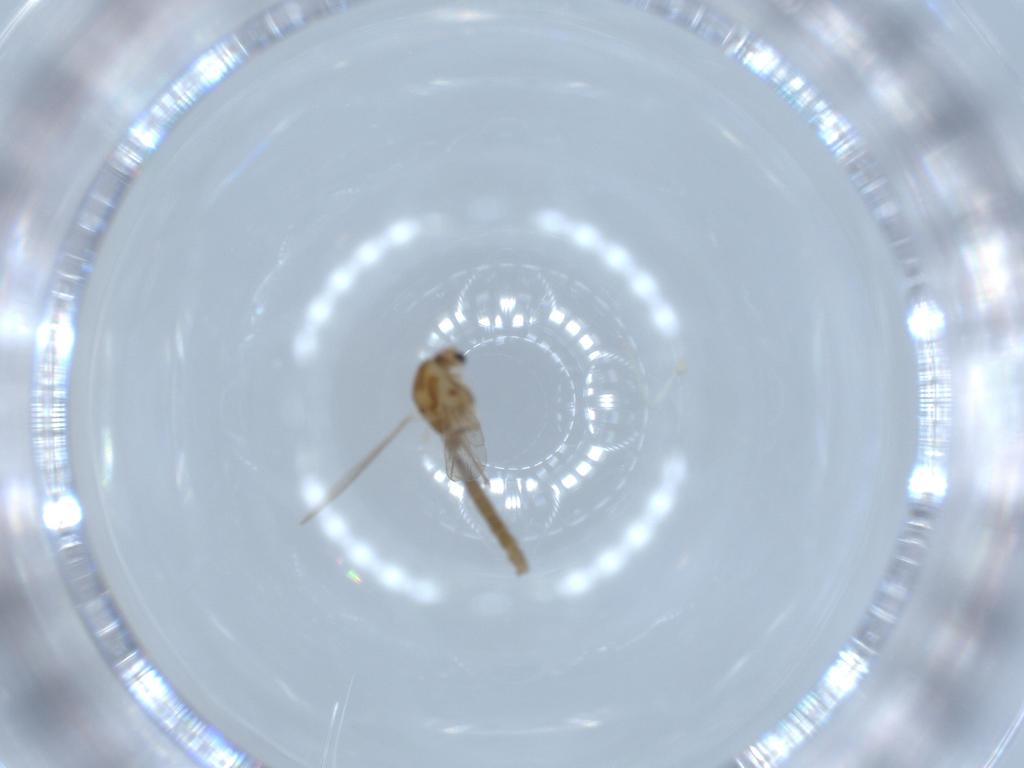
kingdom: Animalia
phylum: Arthropoda
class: Insecta
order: Diptera
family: Chironomidae
